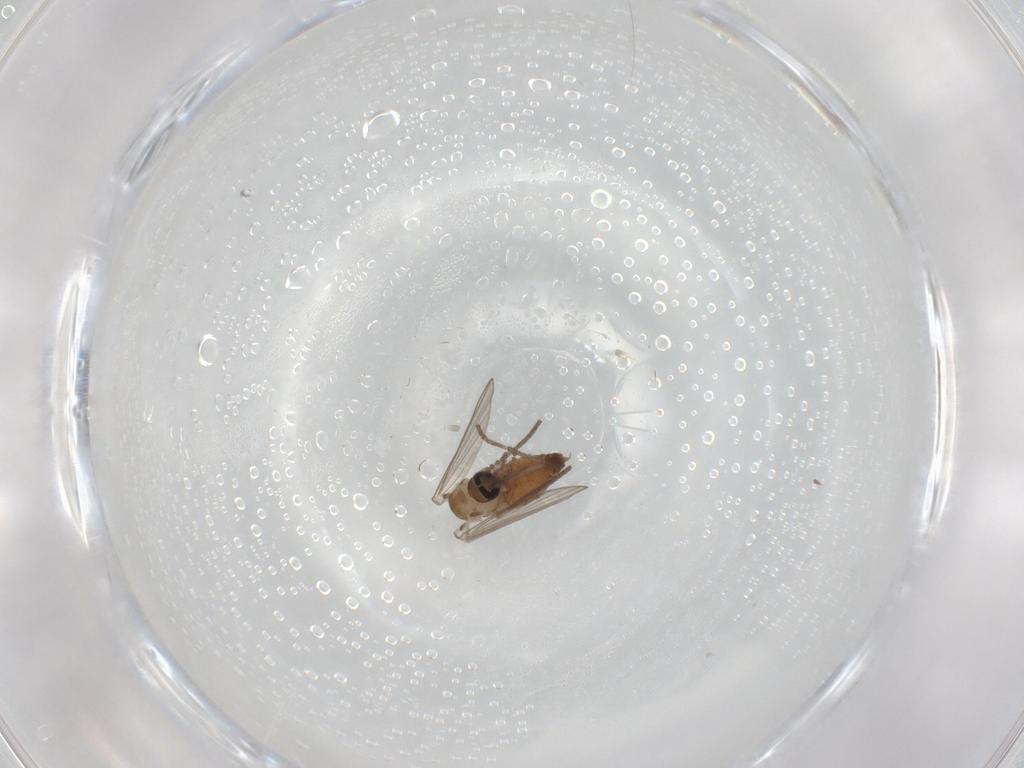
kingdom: Animalia
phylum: Arthropoda
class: Insecta
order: Diptera
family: Psychodidae
